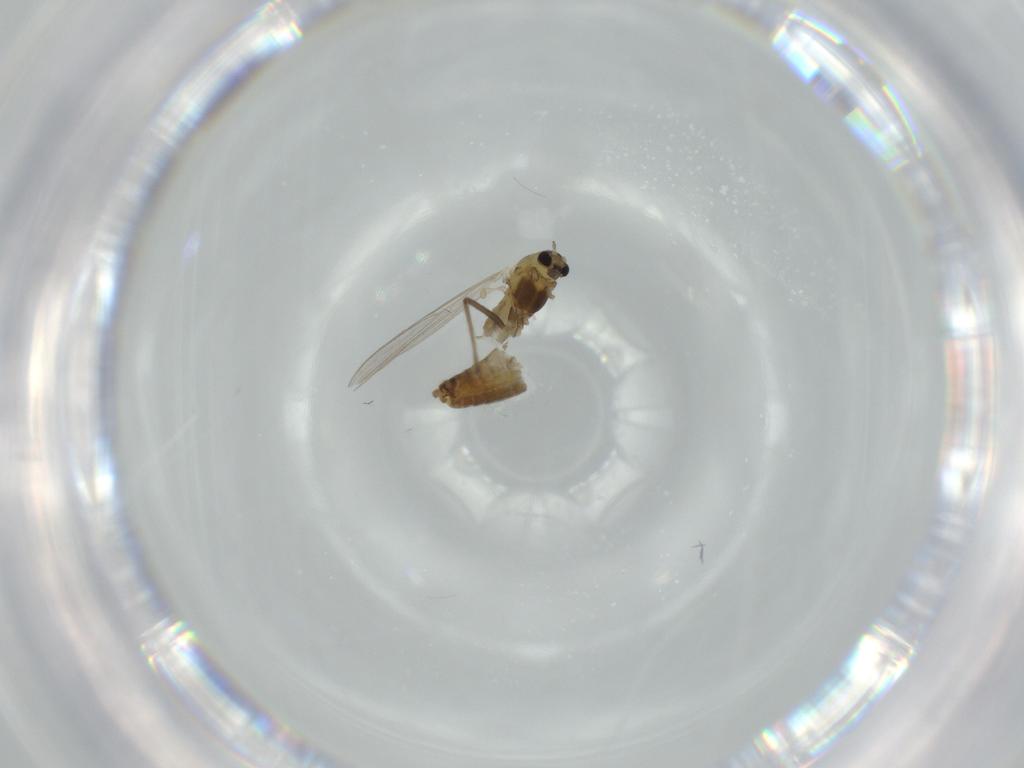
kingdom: Animalia
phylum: Arthropoda
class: Insecta
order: Diptera
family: Chironomidae
